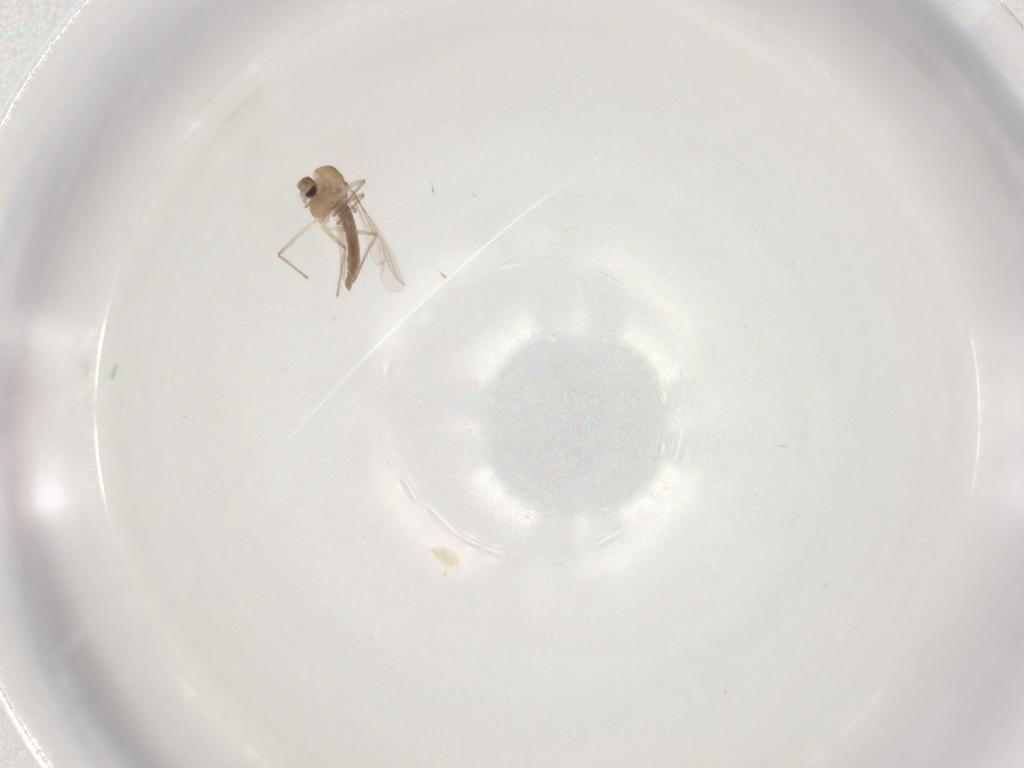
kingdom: Animalia
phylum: Arthropoda
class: Insecta
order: Diptera
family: Chironomidae
